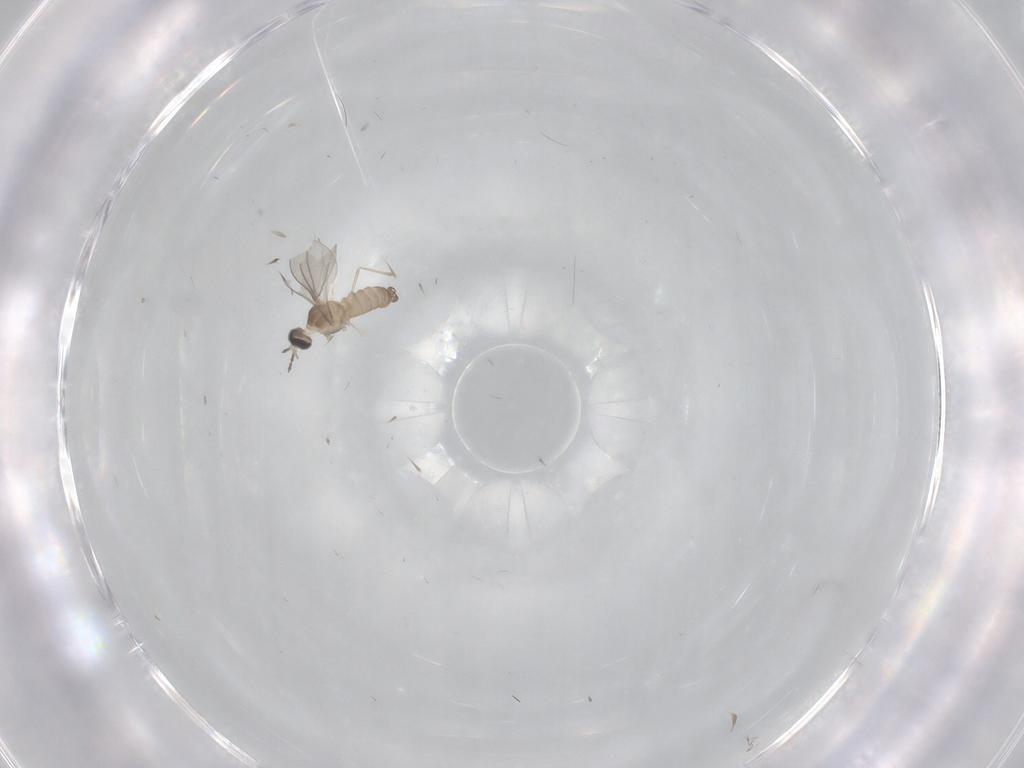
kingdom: Animalia
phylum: Arthropoda
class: Insecta
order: Diptera
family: Cecidomyiidae
